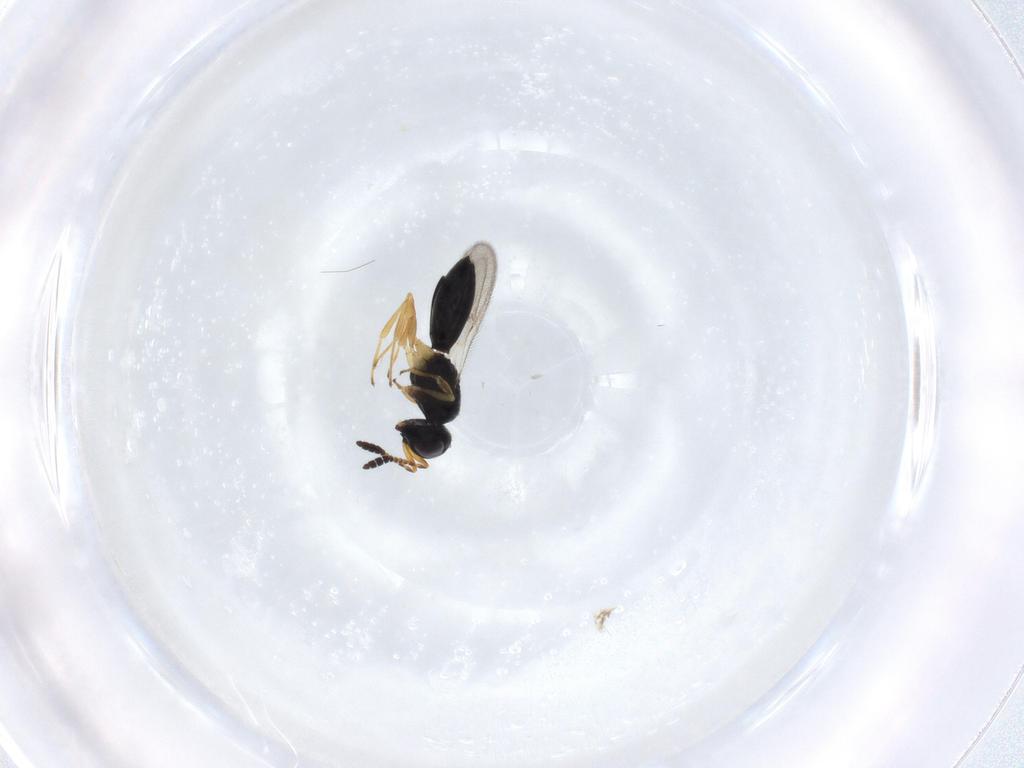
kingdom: Animalia
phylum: Arthropoda
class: Insecta
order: Hymenoptera
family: Scelionidae
